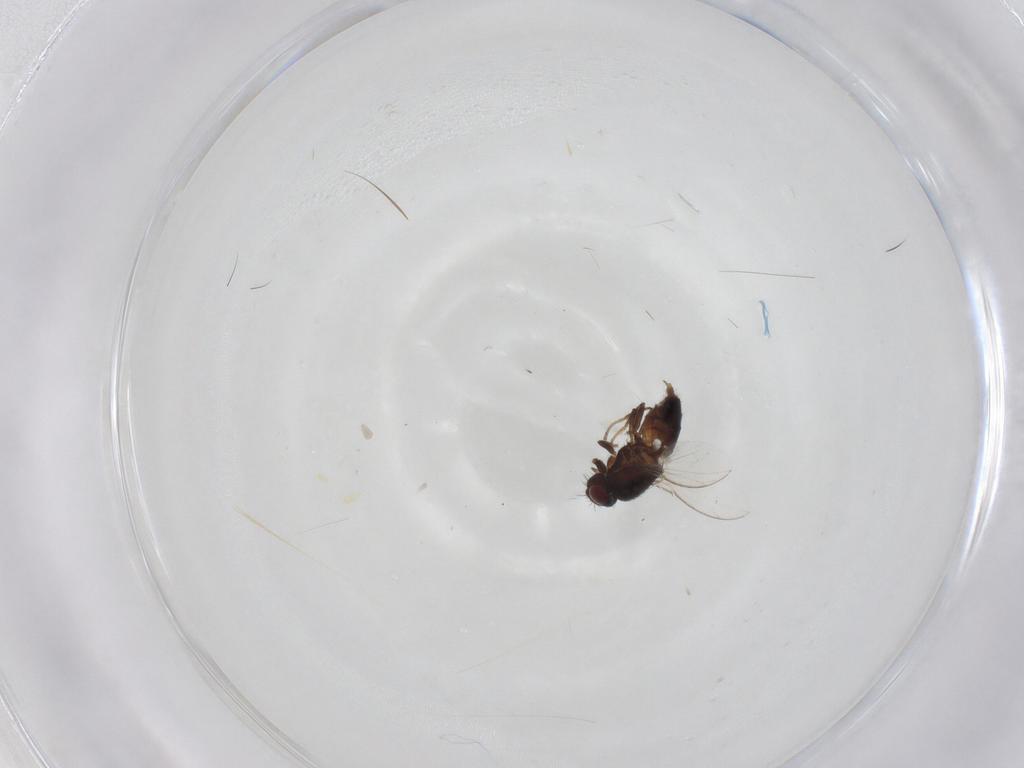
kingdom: Animalia
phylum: Arthropoda
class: Insecta
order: Diptera
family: Carnidae
